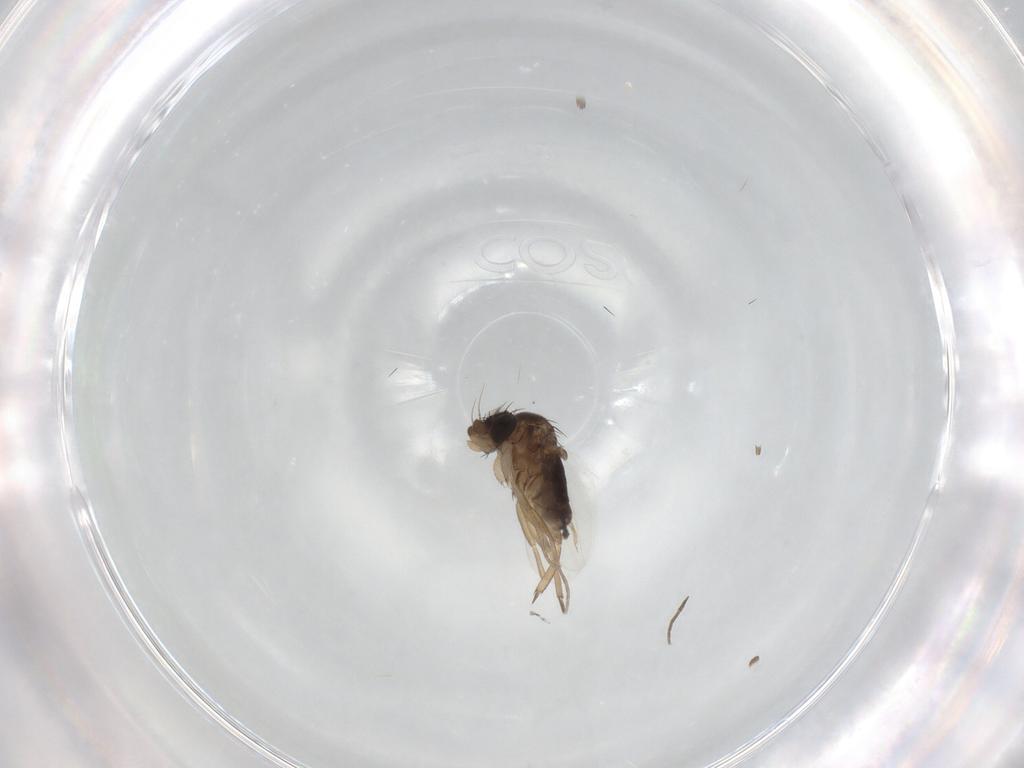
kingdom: Animalia
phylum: Arthropoda
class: Insecta
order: Diptera
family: Phoridae
